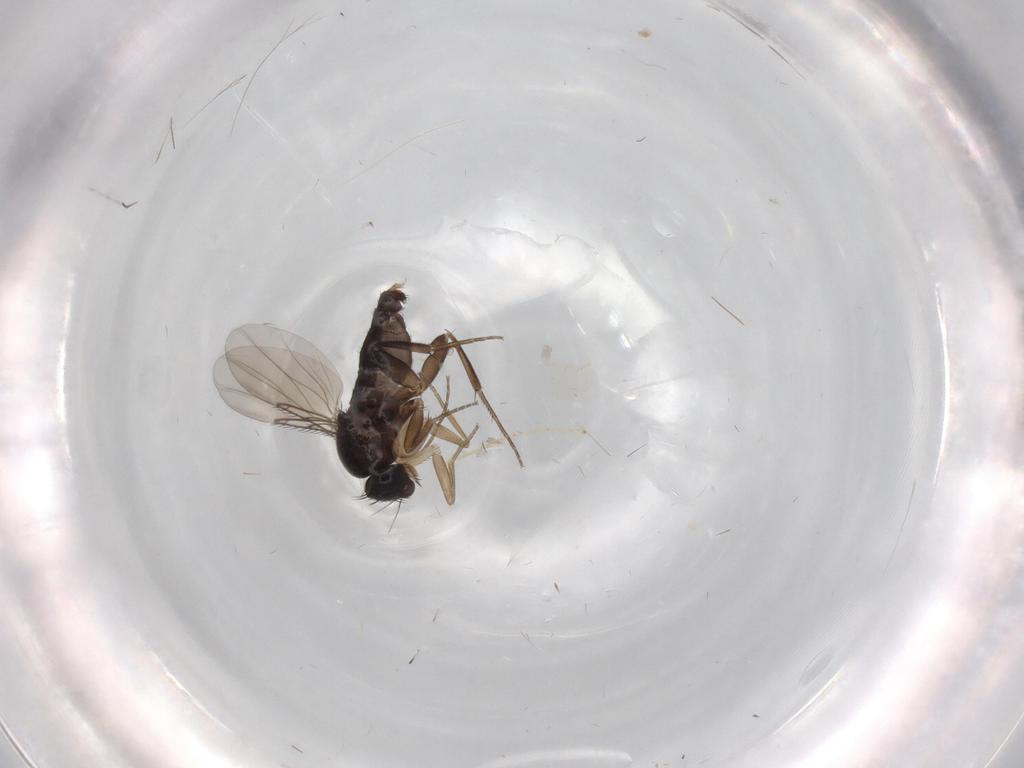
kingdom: Animalia
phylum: Arthropoda
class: Insecta
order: Diptera
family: Phoridae
